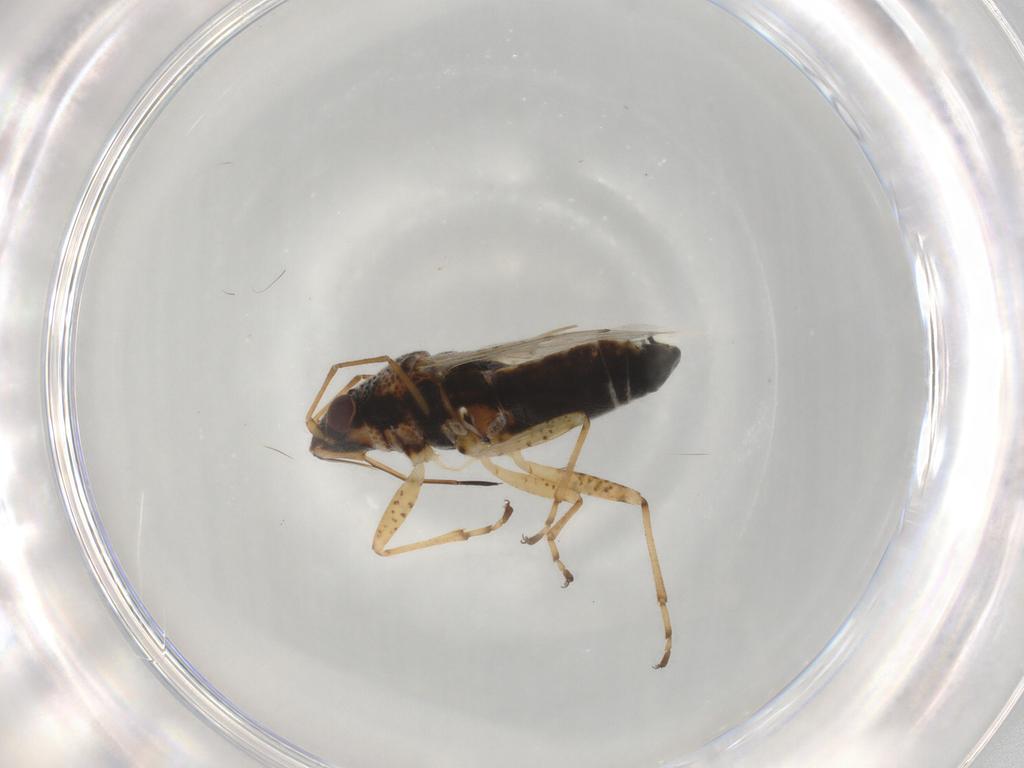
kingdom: Animalia
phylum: Arthropoda
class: Insecta
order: Hemiptera
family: Lygaeidae
